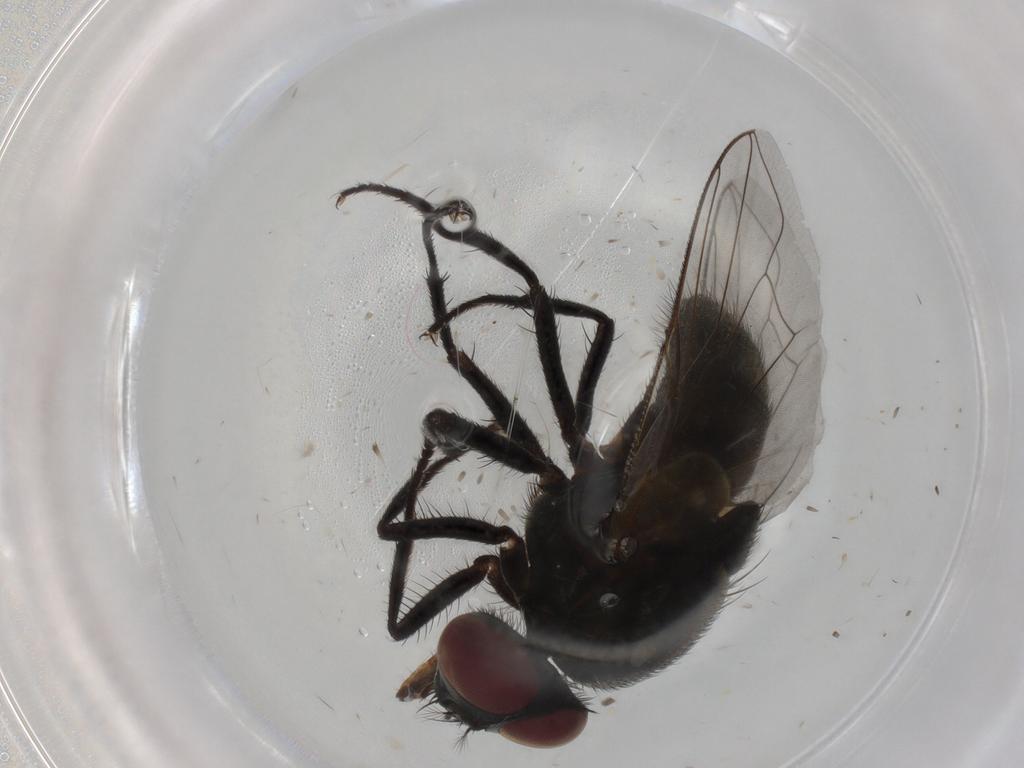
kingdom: Animalia
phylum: Arthropoda
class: Insecta
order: Diptera
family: Muscidae
